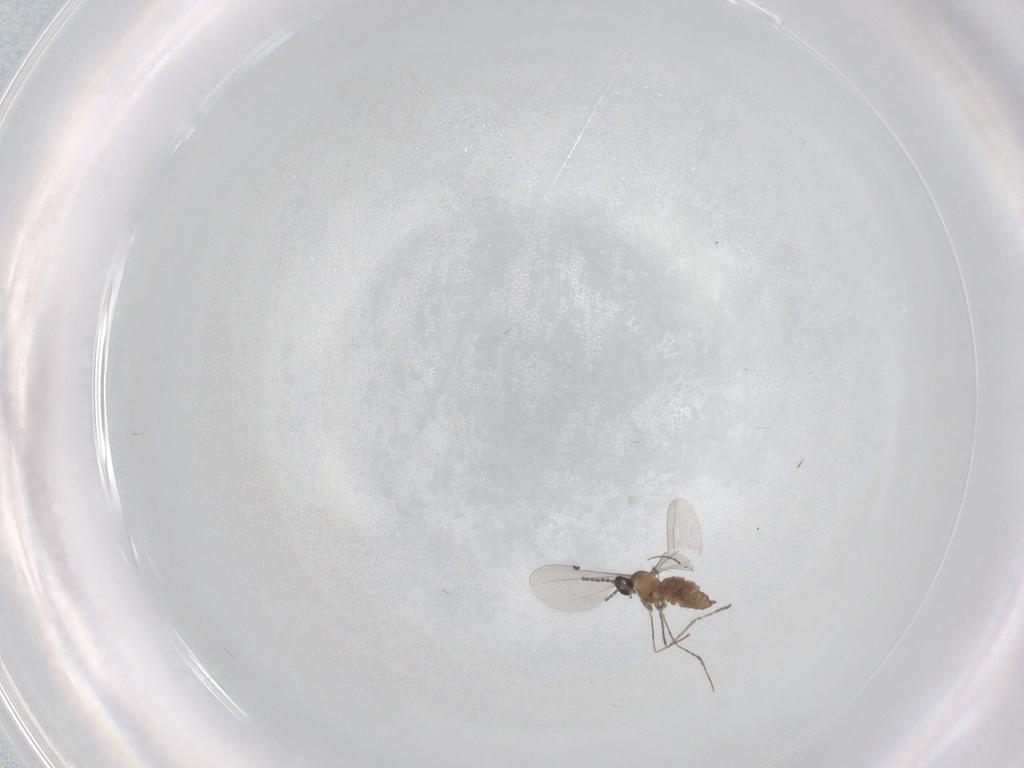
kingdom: Animalia
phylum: Arthropoda
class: Insecta
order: Diptera
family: Cecidomyiidae
